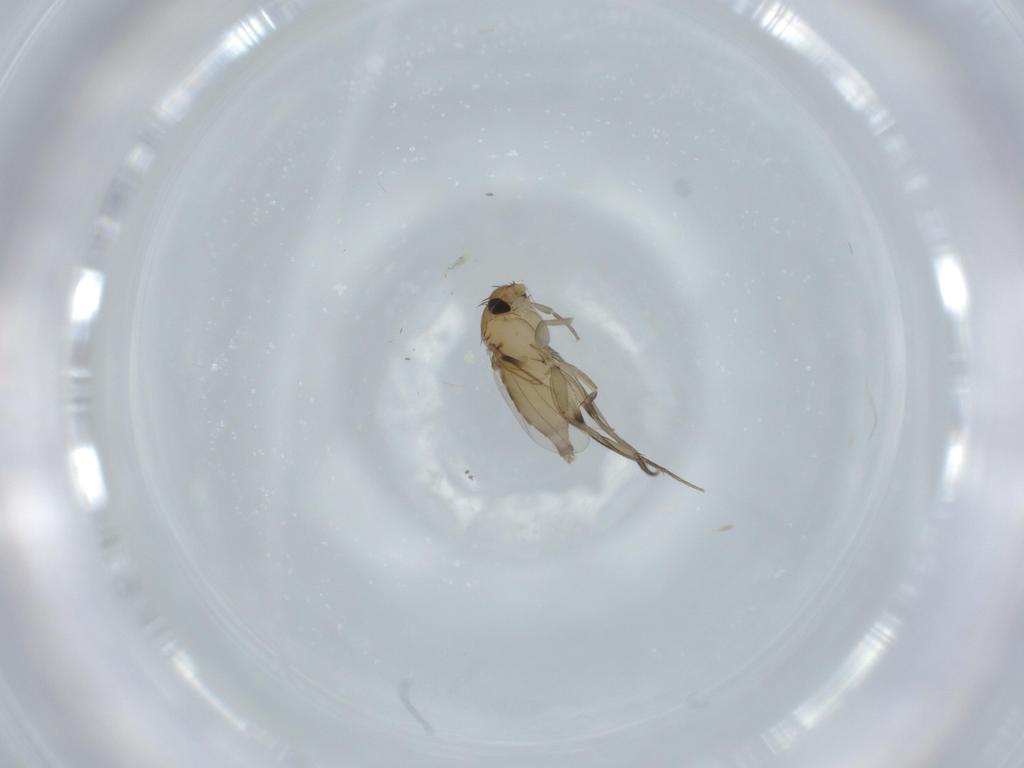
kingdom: Animalia
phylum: Arthropoda
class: Insecta
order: Diptera
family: Phoridae
